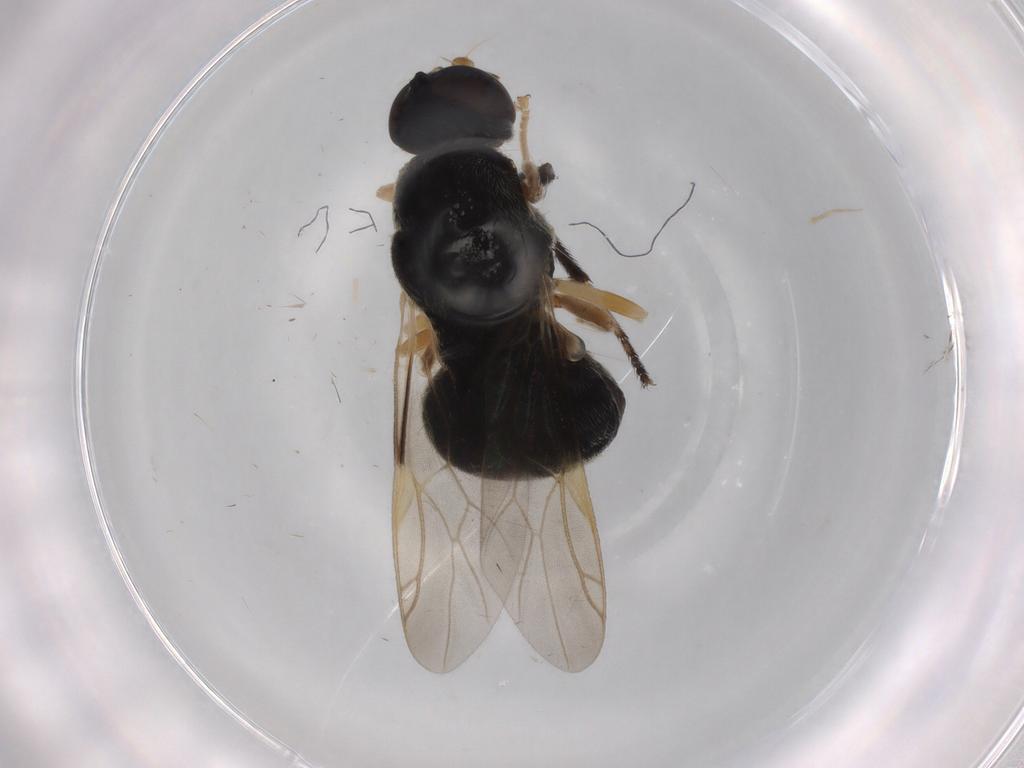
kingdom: Animalia
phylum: Arthropoda
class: Insecta
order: Diptera
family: Stratiomyidae
